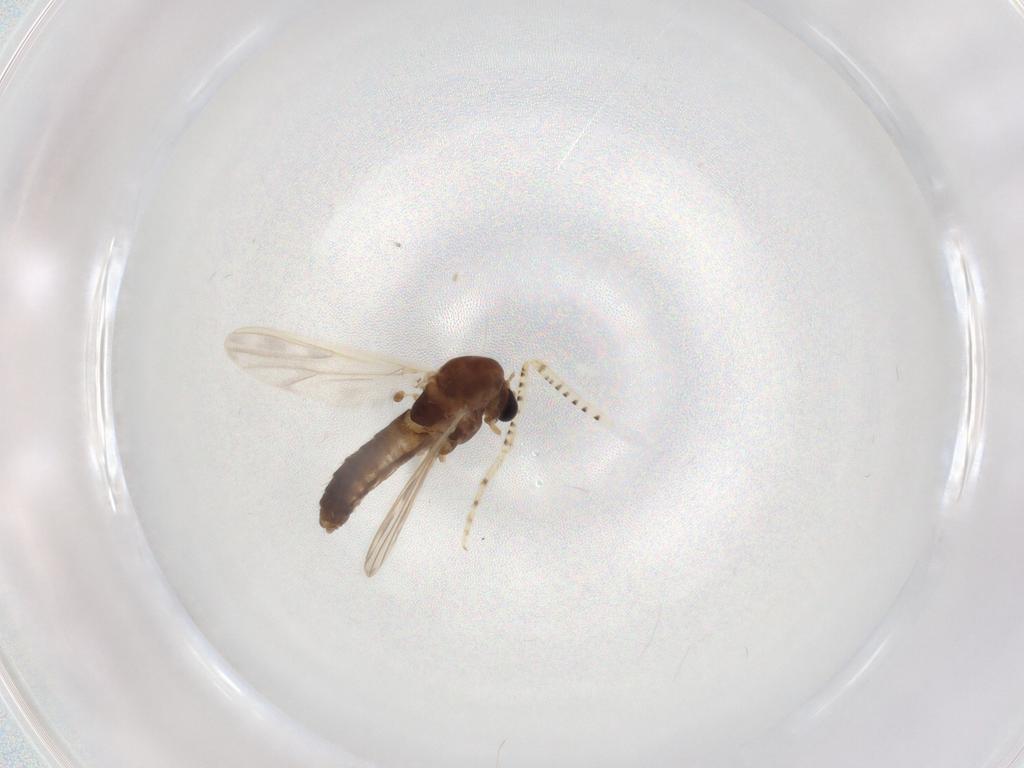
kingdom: Animalia
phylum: Arthropoda
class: Insecta
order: Diptera
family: Chironomidae
